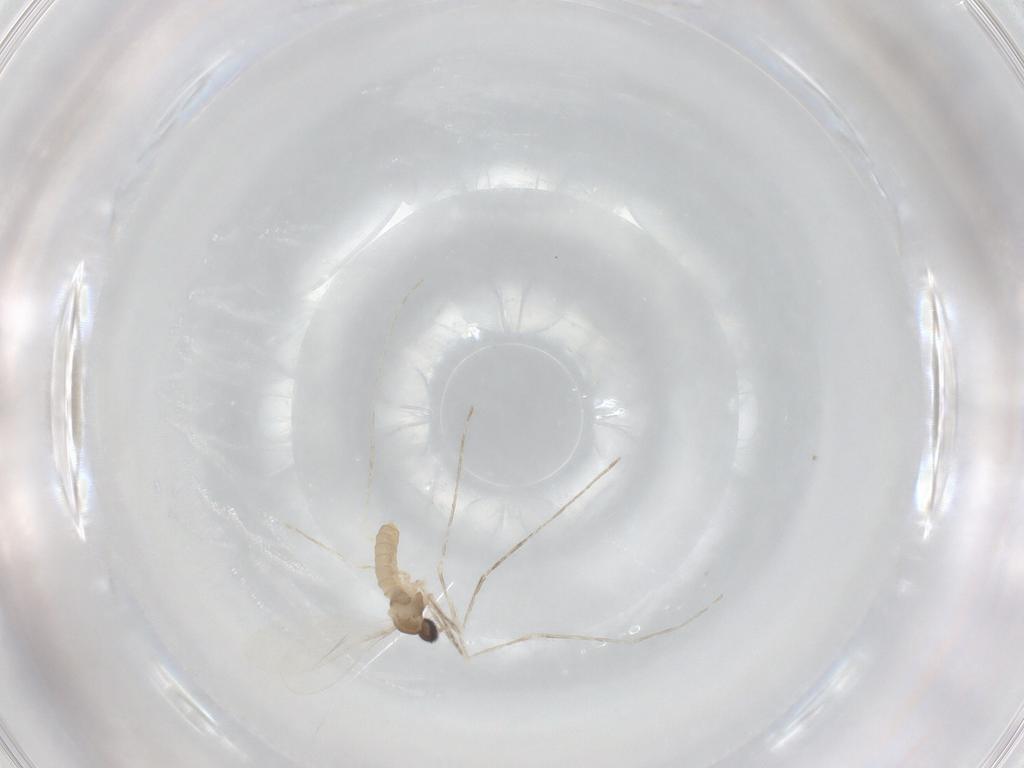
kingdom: Animalia
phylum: Arthropoda
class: Insecta
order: Diptera
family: Cecidomyiidae
